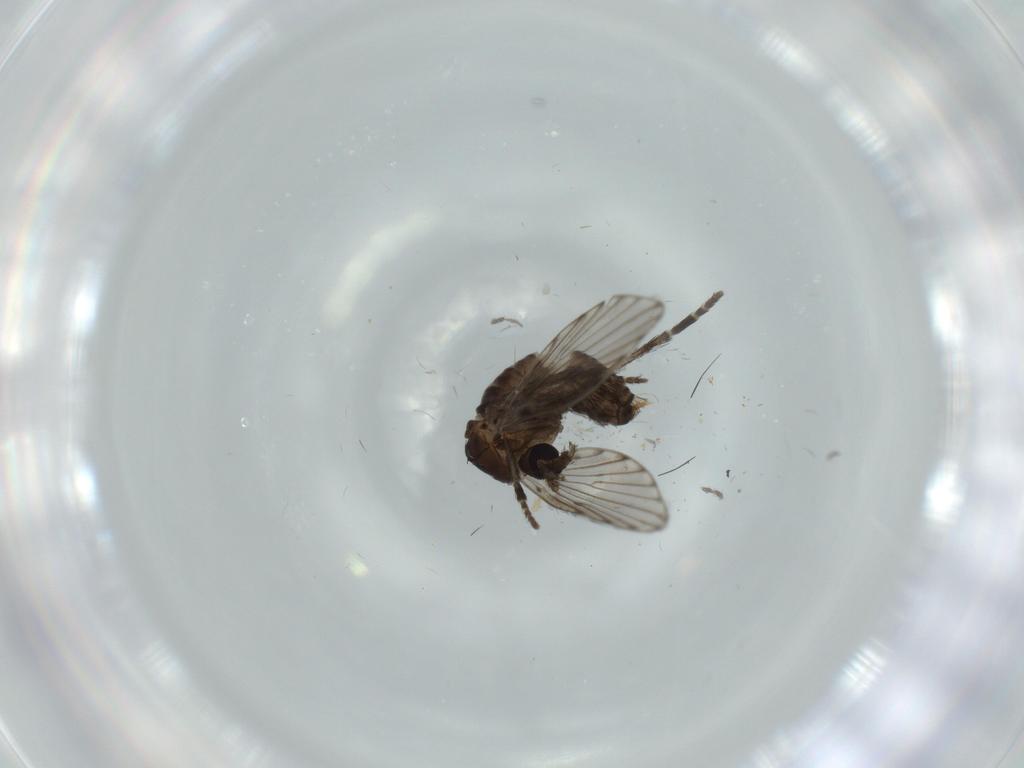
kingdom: Animalia
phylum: Arthropoda
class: Insecta
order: Diptera
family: Psychodidae
